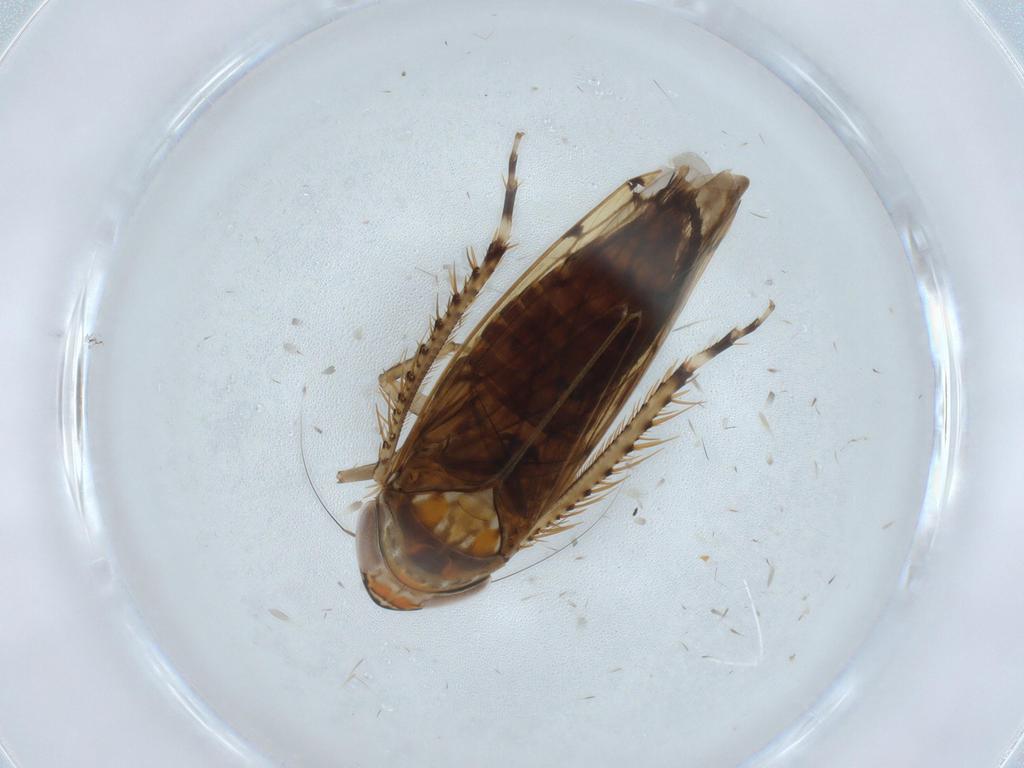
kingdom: Animalia
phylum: Arthropoda
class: Insecta
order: Hemiptera
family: Cicadellidae
